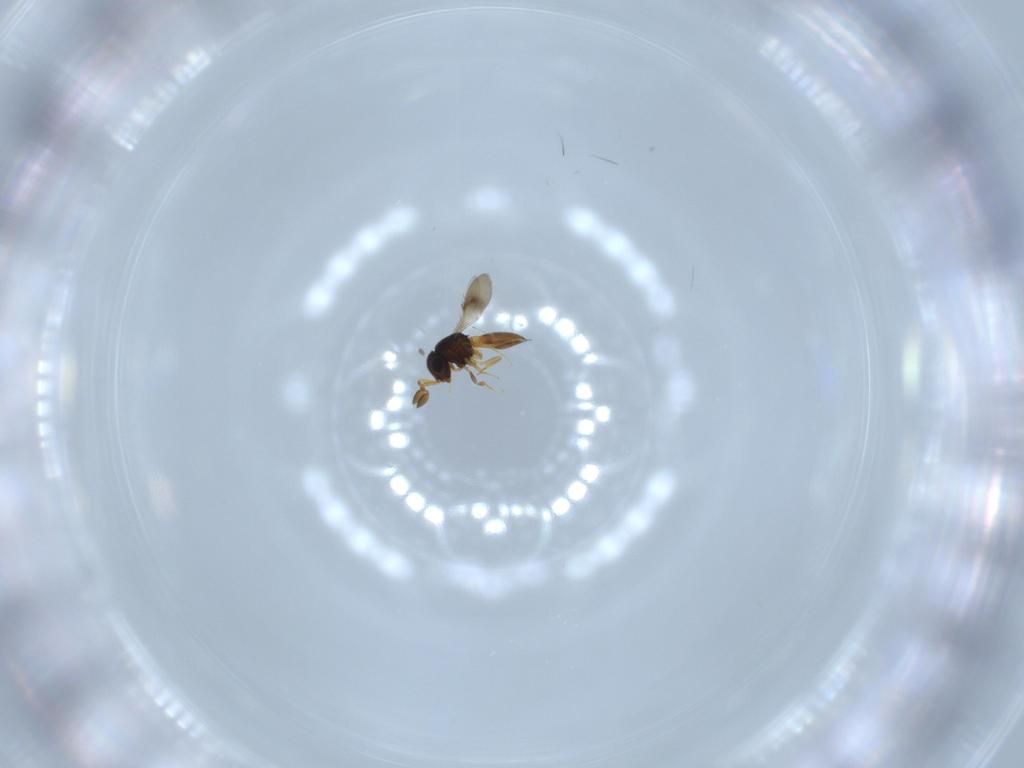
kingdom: Animalia
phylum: Arthropoda
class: Insecta
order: Hymenoptera
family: Scelionidae
